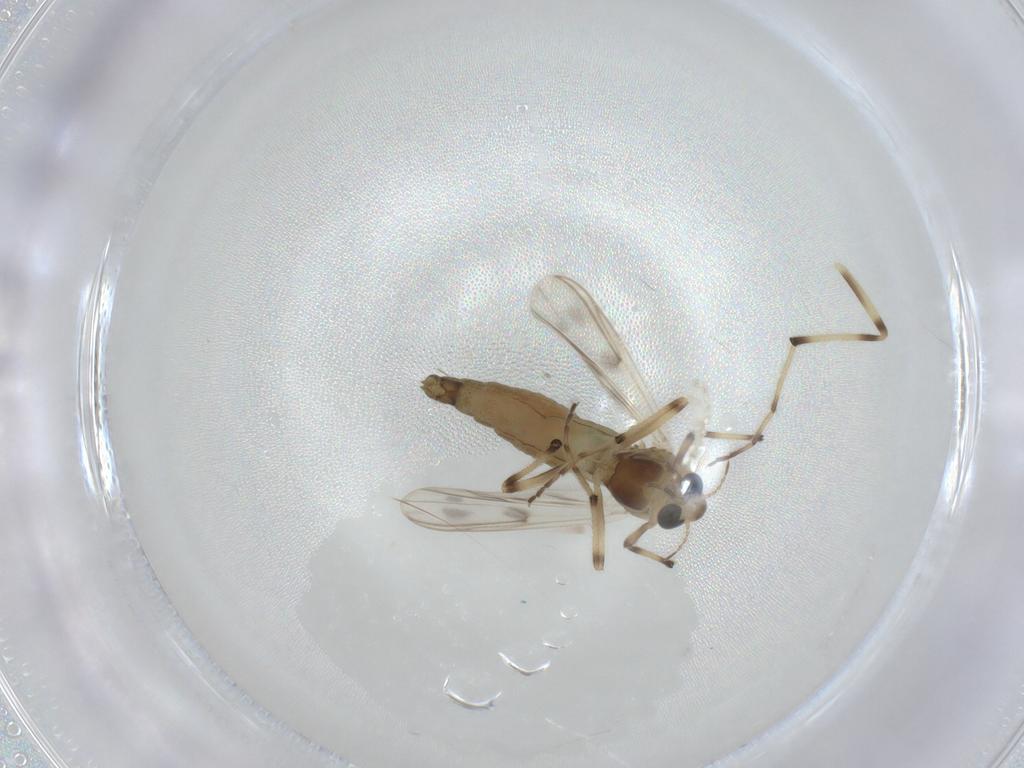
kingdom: Animalia
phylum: Arthropoda
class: Insecta
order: Diptera
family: Chironomidae
